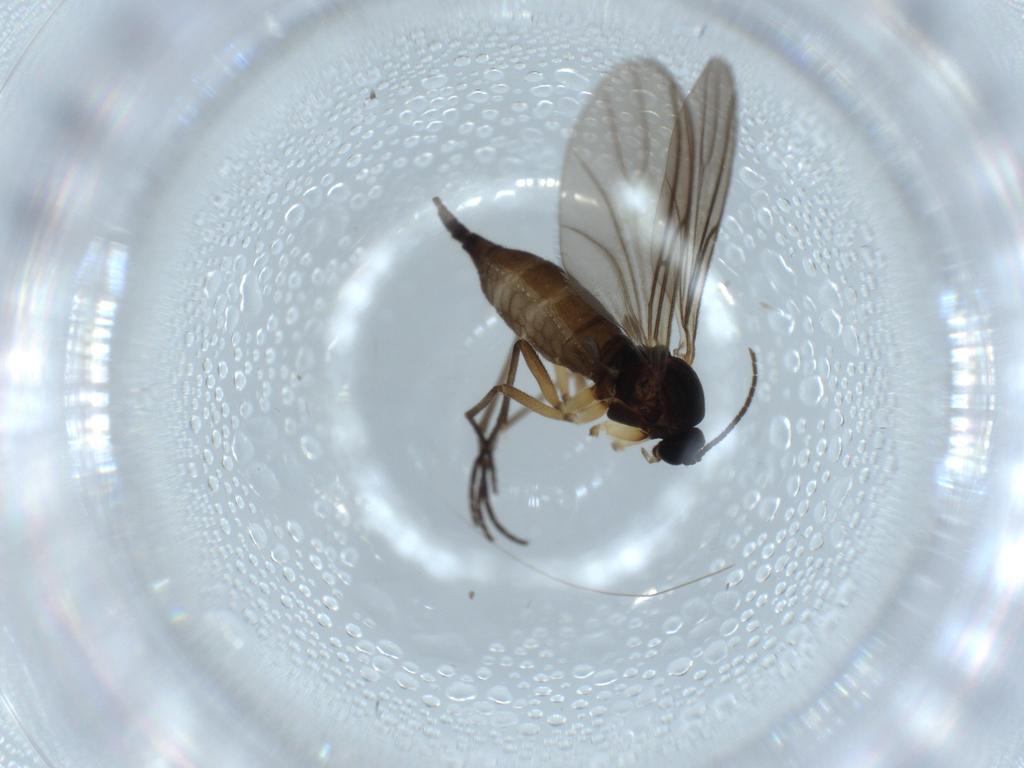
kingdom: Animalia
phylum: Arthropoda
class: Insecta
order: Diptera
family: Sciaridae
